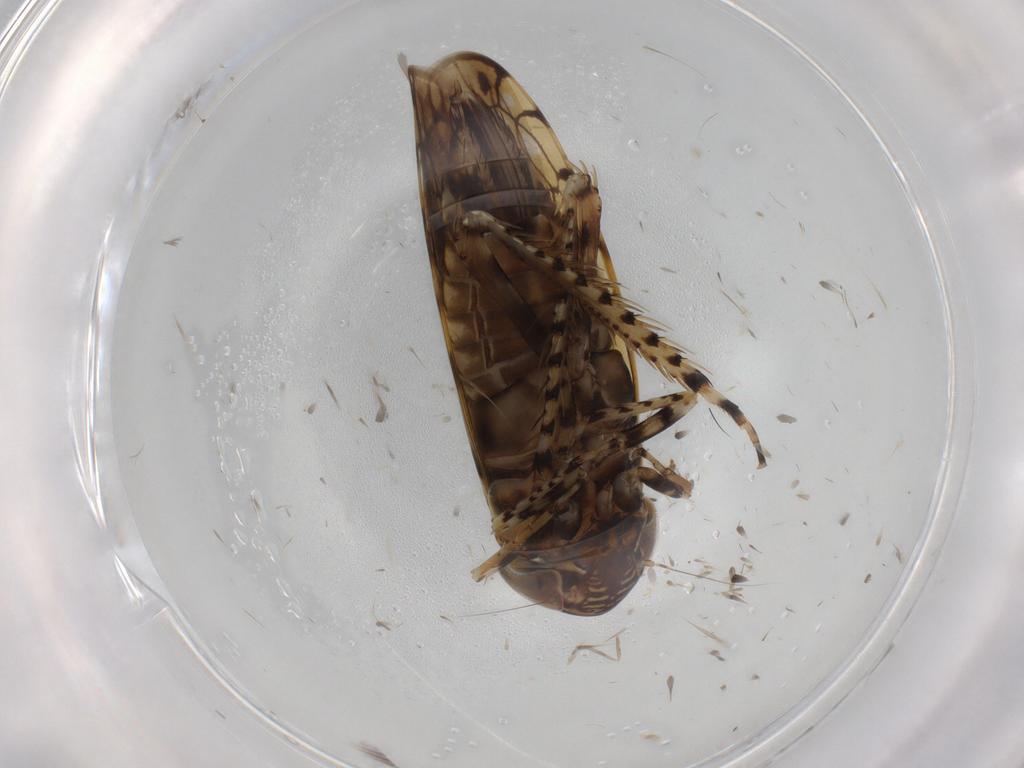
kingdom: Animalia
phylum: Arthropoda
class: Insecta
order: Hemiptera
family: Cicadellidae
